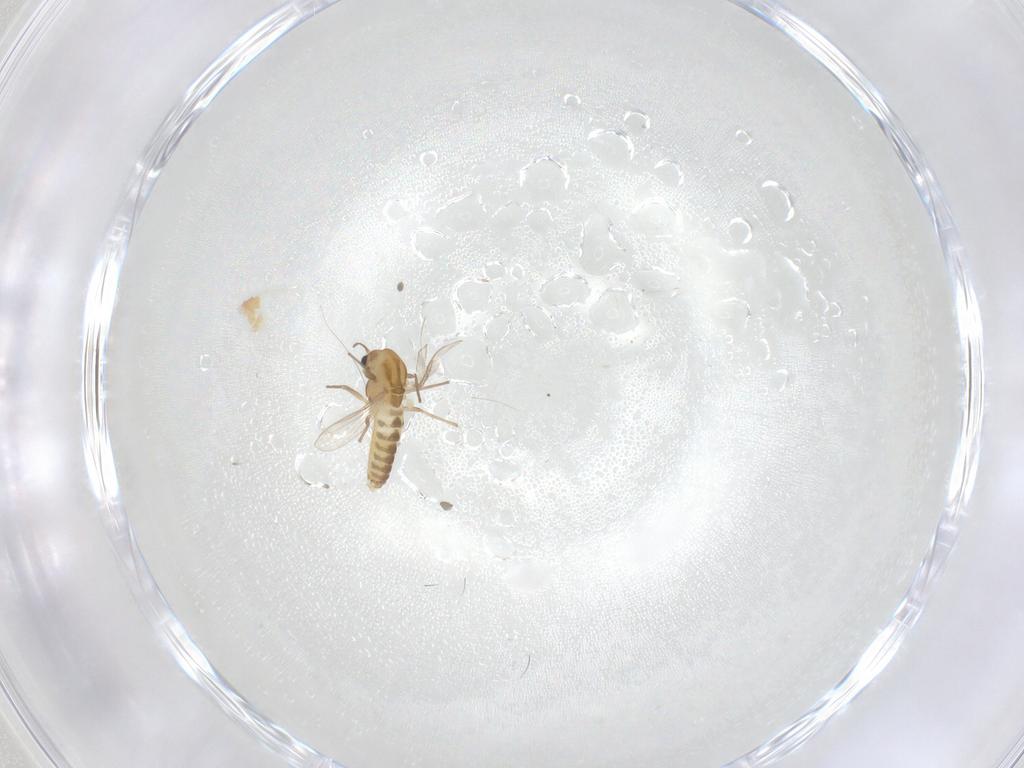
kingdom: Animalia
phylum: Arthropoda
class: Insecta
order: Diptera
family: Chironomidae
